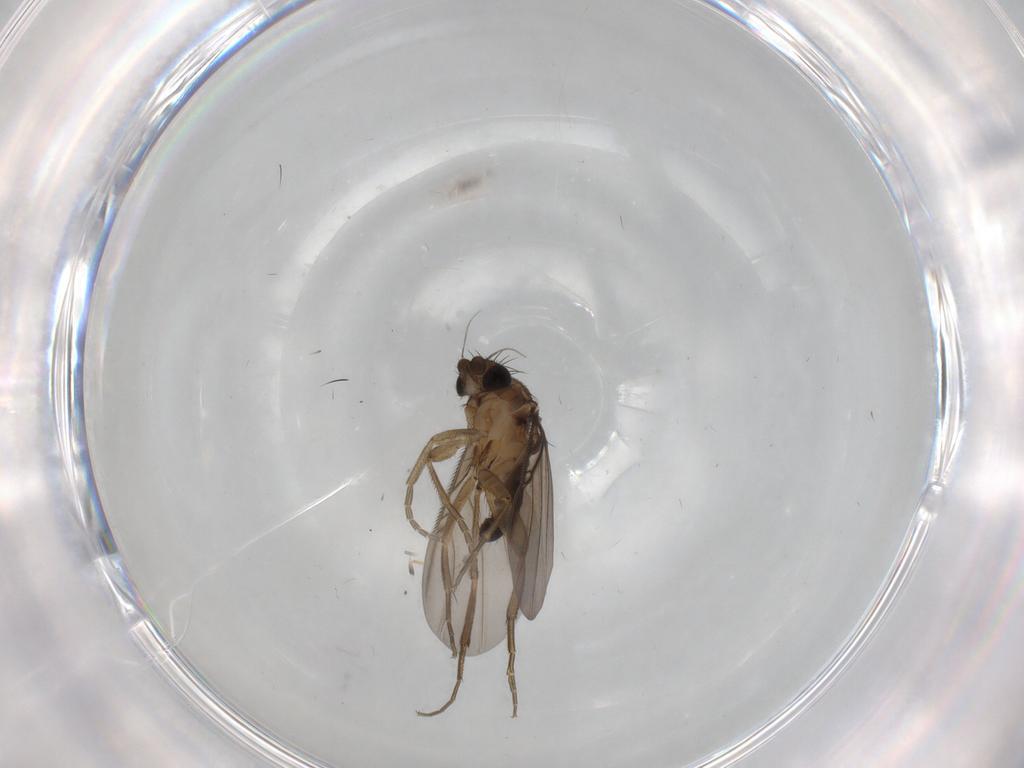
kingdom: Animalia
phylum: Arthropoda
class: Insecta
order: Diptera
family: Phoridae
